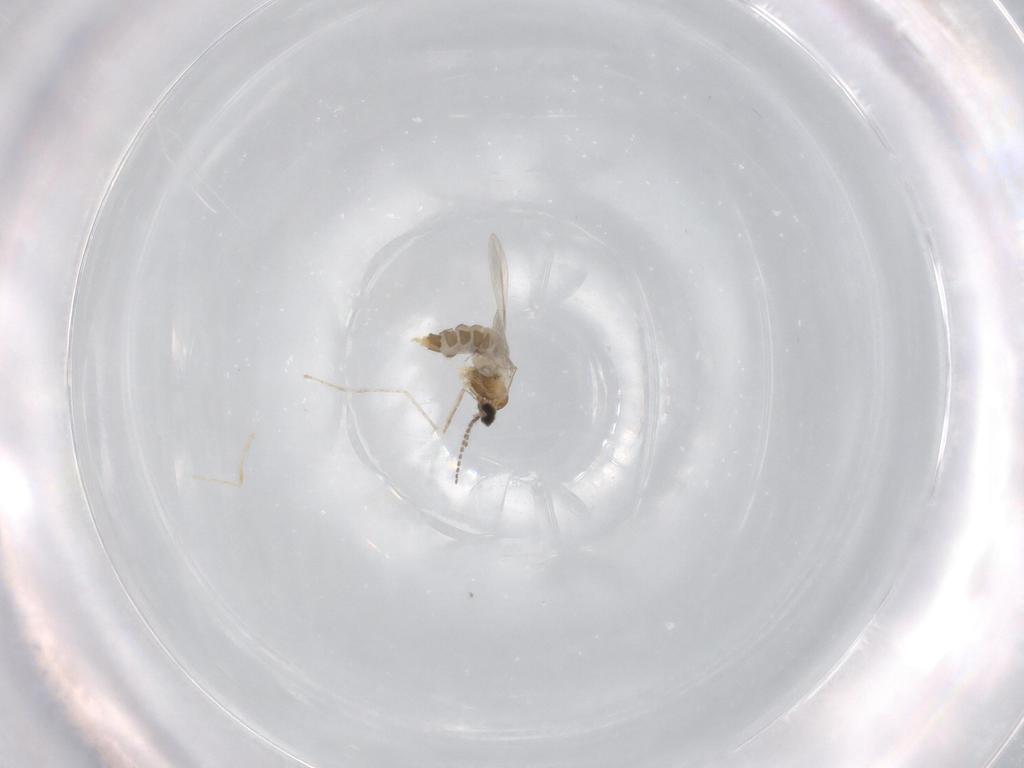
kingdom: Animalia
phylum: Arthropoda
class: Insecta
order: Diptera
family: Cecidomyiidae
